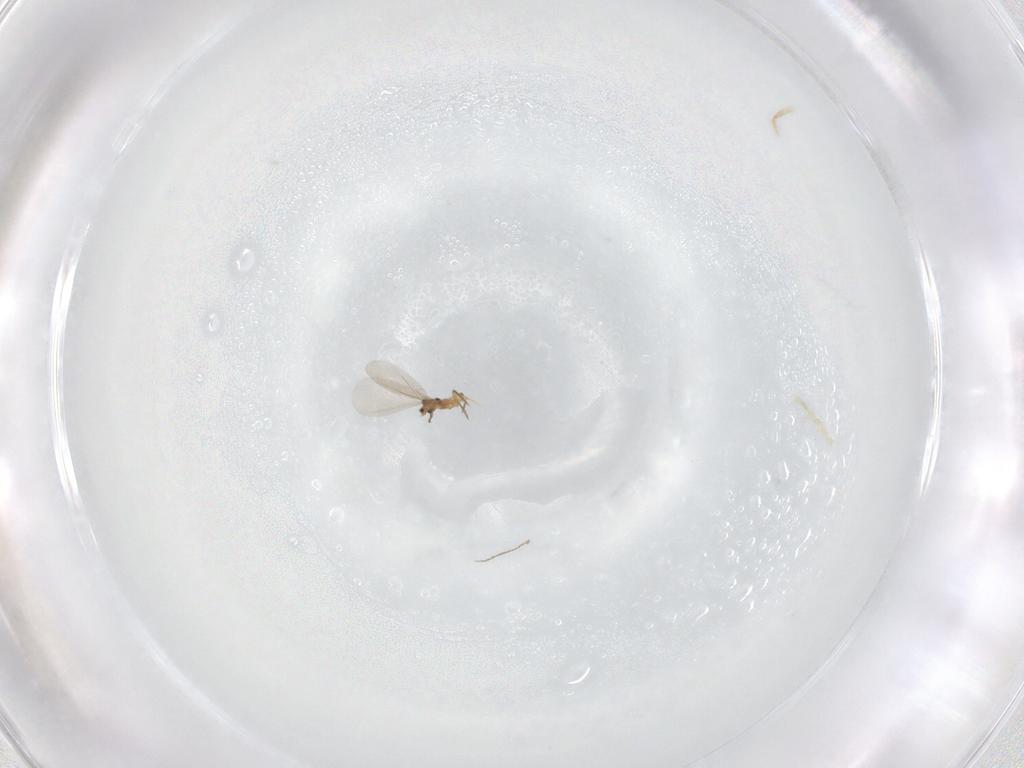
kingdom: Animalia
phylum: Arthropoda
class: Insecta
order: Hemiptera
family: Diaspididae
